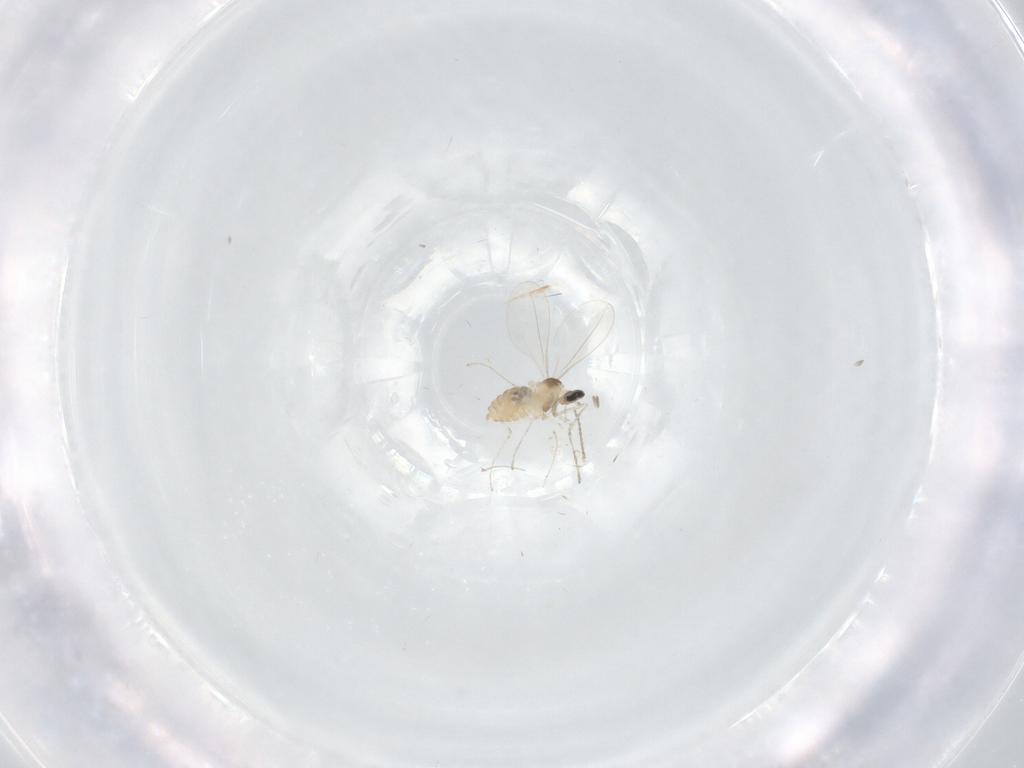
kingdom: Animalia
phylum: Arthropoda
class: Insecta
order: Diptera
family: Cecidomyiidae
